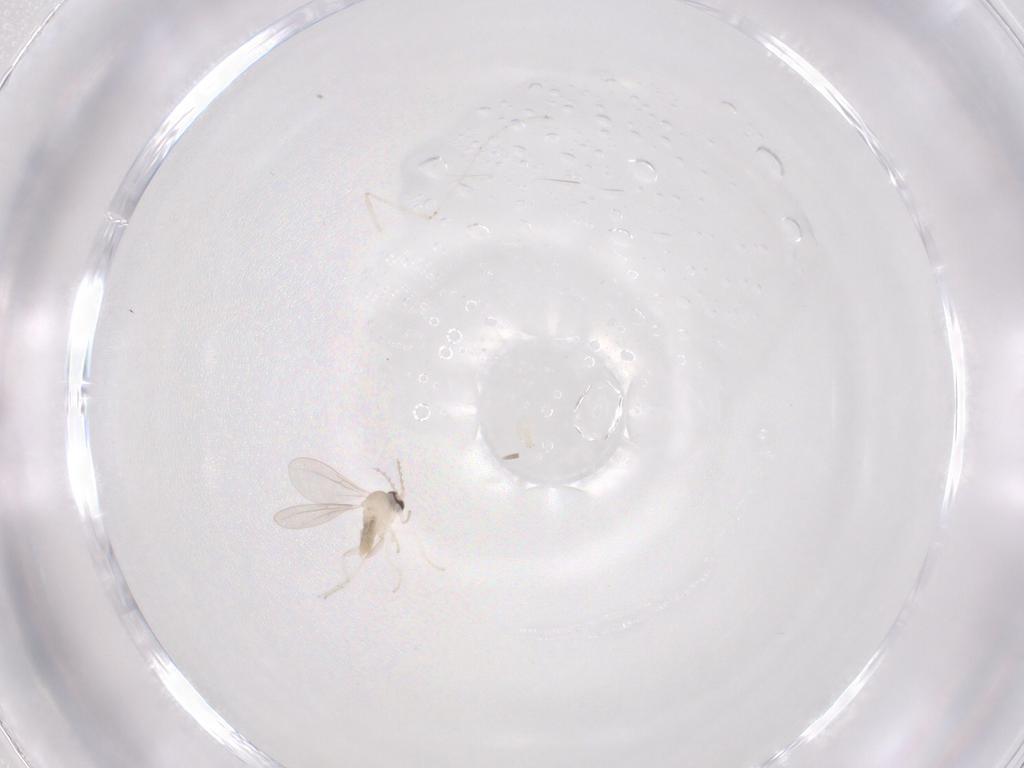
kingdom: Animalia
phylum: Arthropoda
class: Insecta
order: Diptera
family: Cecidomyiidae
